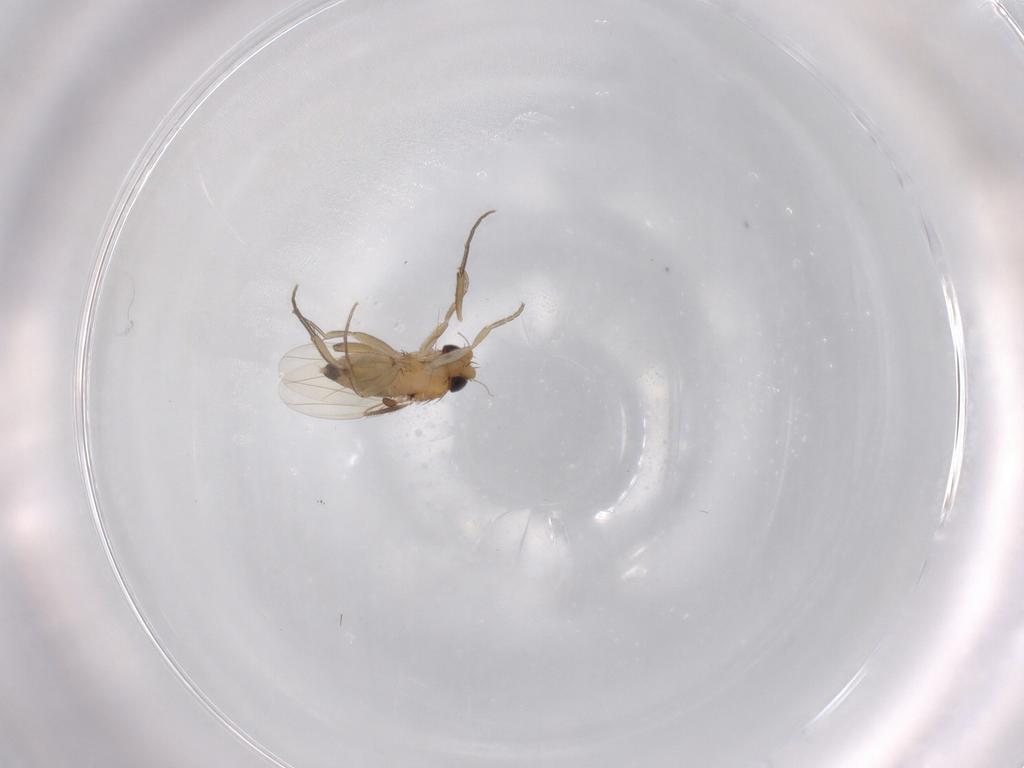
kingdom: Animalia
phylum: Arthropoda
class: Insecta
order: Diptera
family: Phoridae
